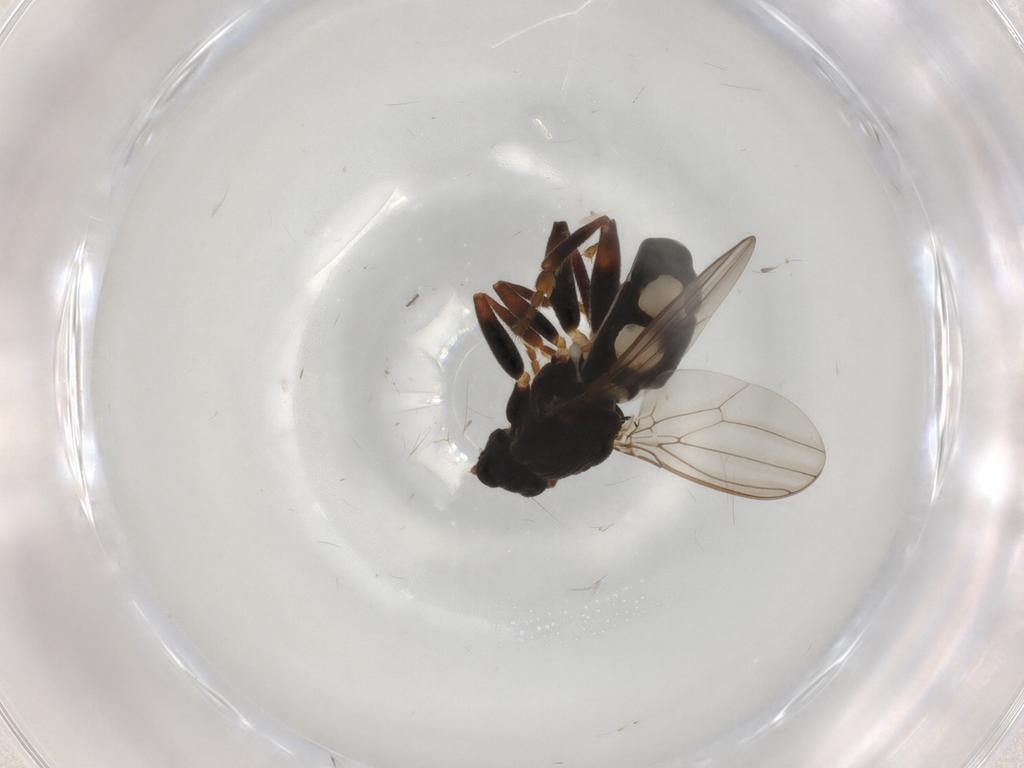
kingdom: Animalia
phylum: Arthropoda
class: Insecta
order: Diptera
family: Sphaeroceridae
